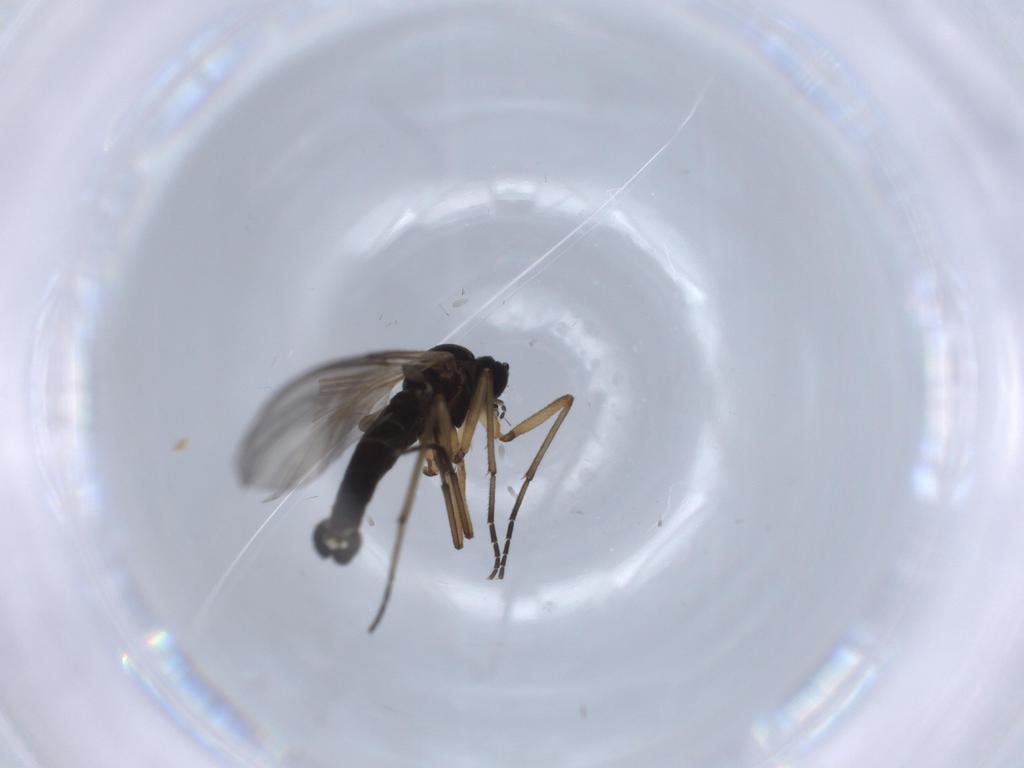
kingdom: Animalia
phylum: Arthropoda
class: Insecta
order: Diptera
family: Sciaridae
